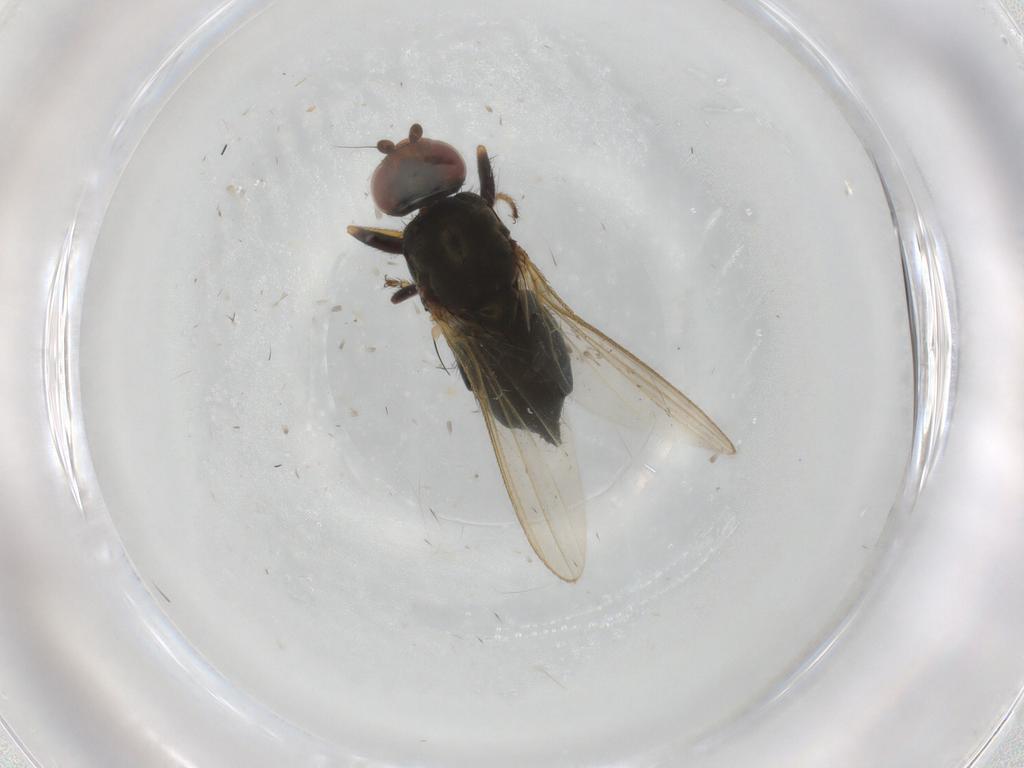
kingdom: Animalia
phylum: Arthropoda
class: Insecta
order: Diptera
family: Sphaeroceridae
